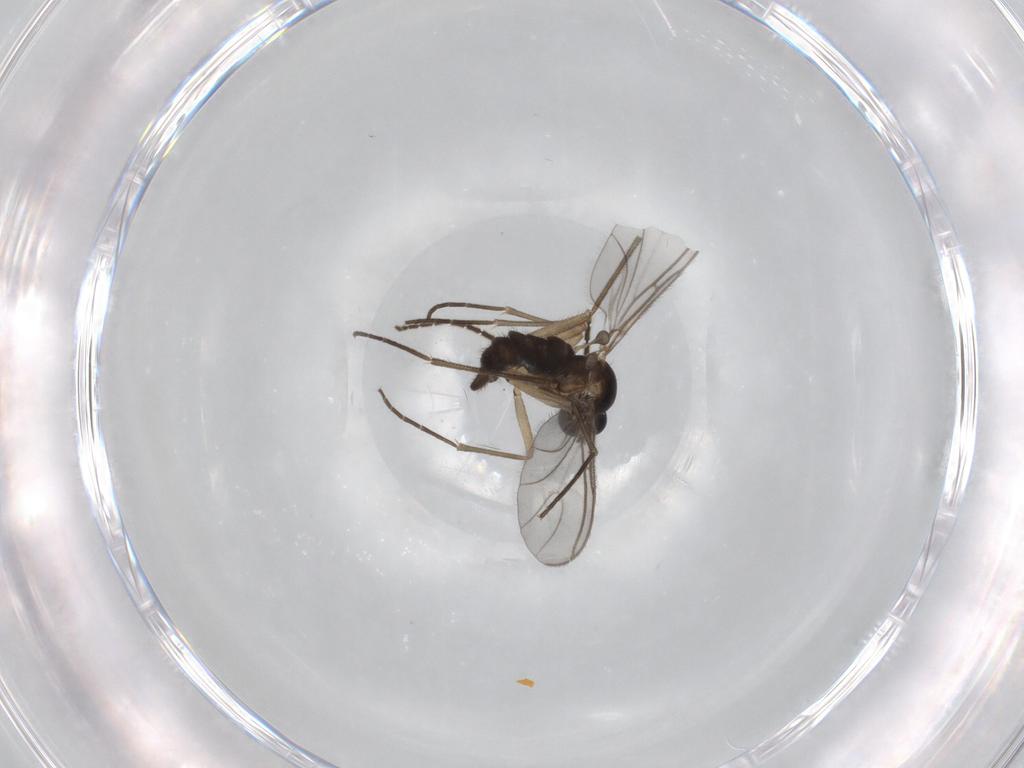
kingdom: Animalia
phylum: Arthropoda
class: Insecta
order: Diptera
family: Sciaridae
